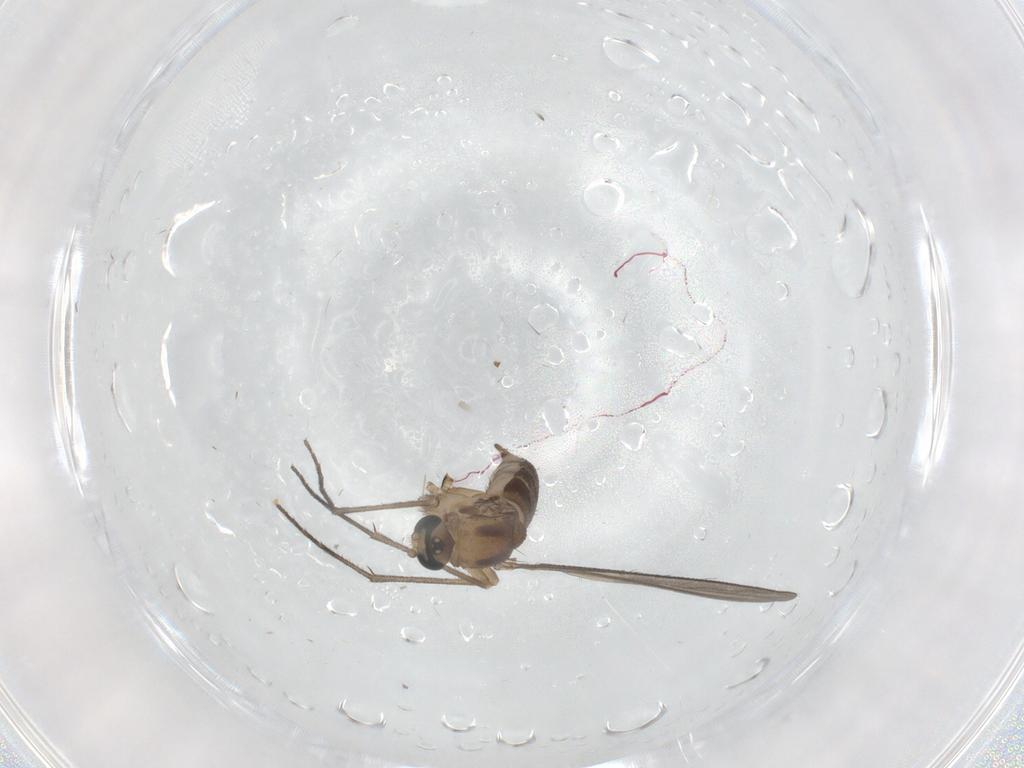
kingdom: Animalia
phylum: Arthropoda
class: Insecta
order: Diptera
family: Sciaridae
